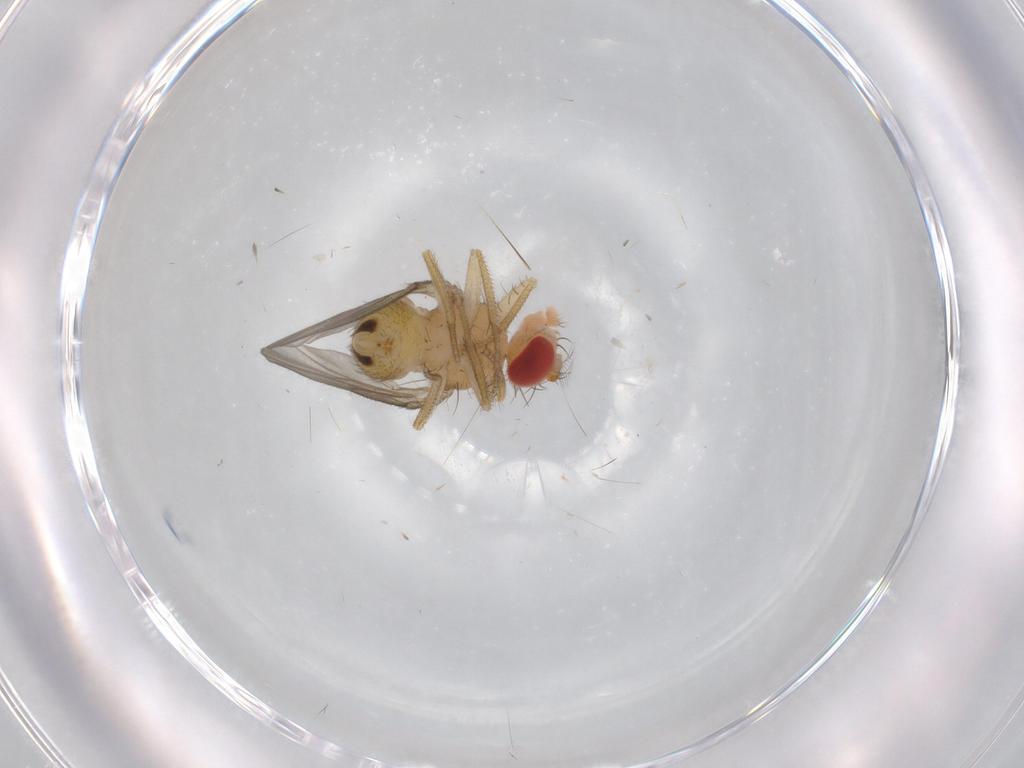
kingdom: Animalia
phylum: Arthropoda
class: Insecta
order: Diptera
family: Drosophilidae
